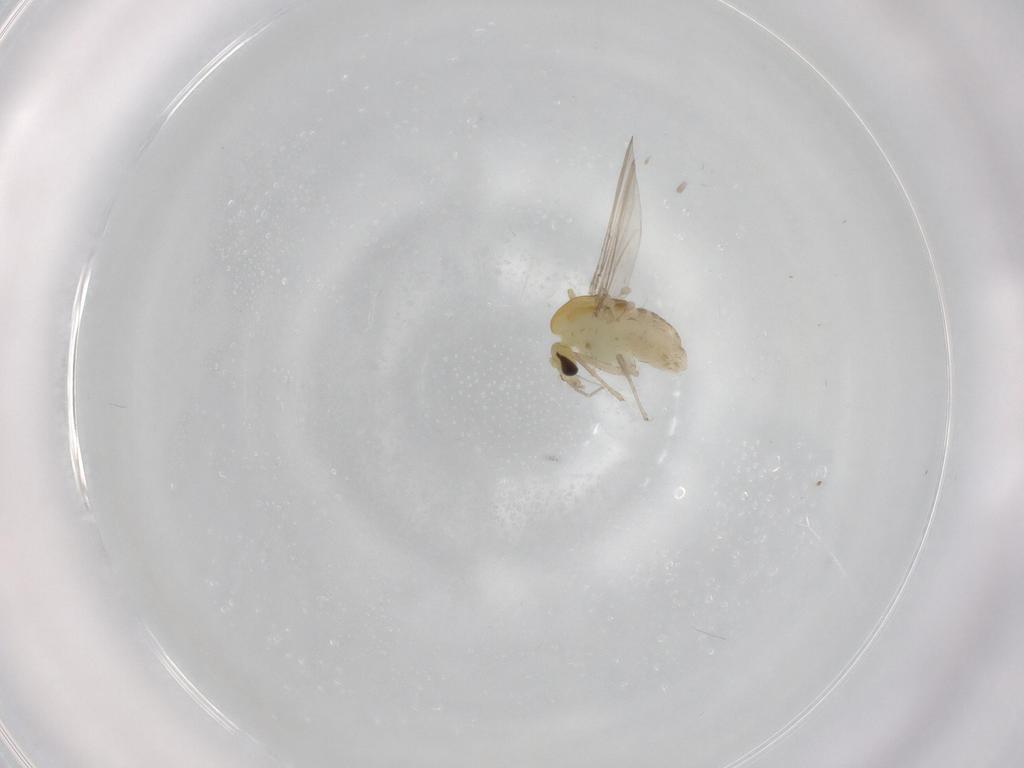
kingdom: Animalia
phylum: Arthropoda
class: Insecta
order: Diptera
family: Chironomidae
